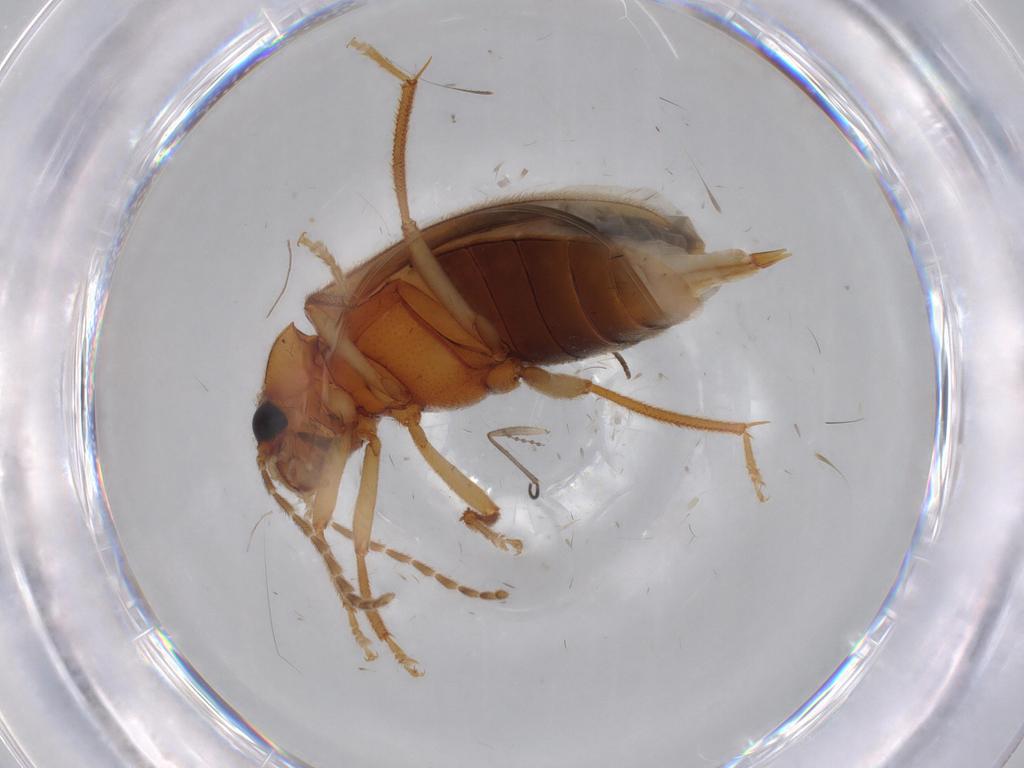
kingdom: Animalia
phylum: Arthropoda
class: Insecta
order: Coleoptera
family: Ptilodactylidae
